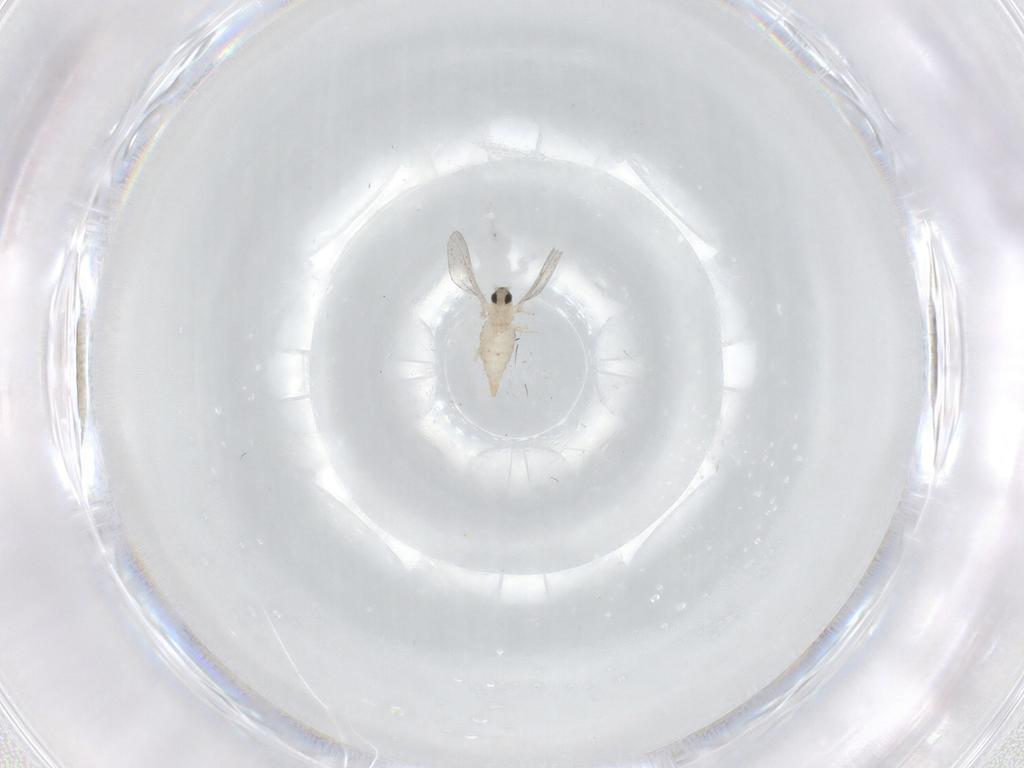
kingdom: Animalia
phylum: Arthropoda
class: Insecta
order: Diptera
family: Cecidomyiidae
